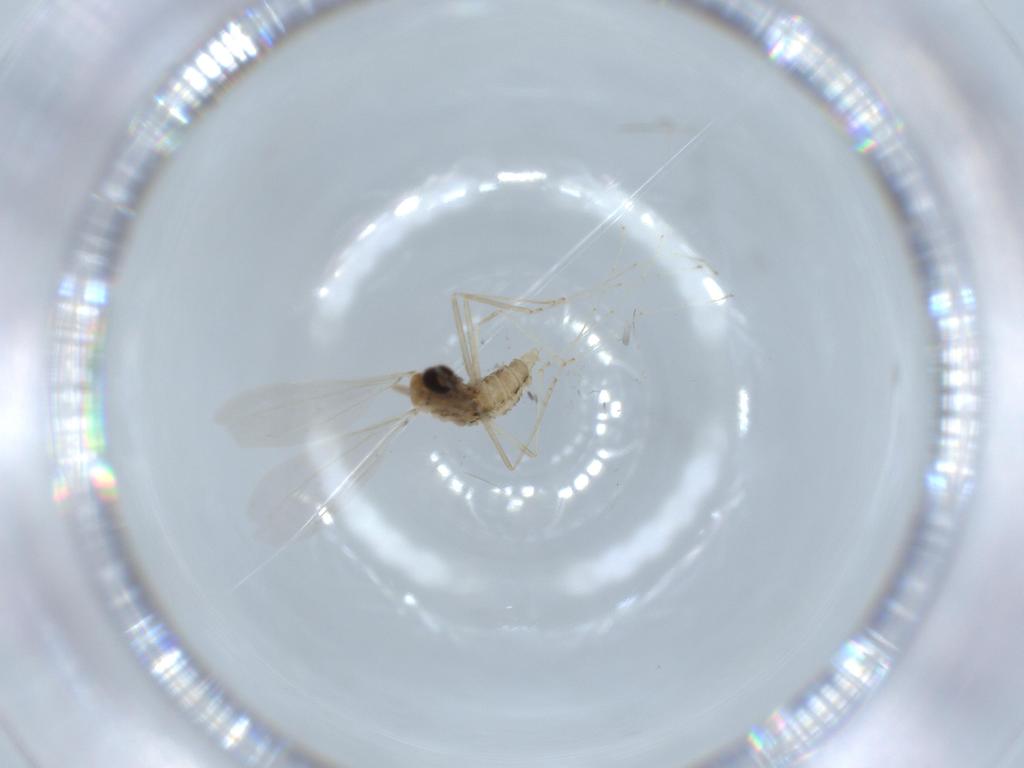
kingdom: Animalia
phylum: Arthropoda
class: Insecta
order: Diptera
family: Cecidomyiidae
